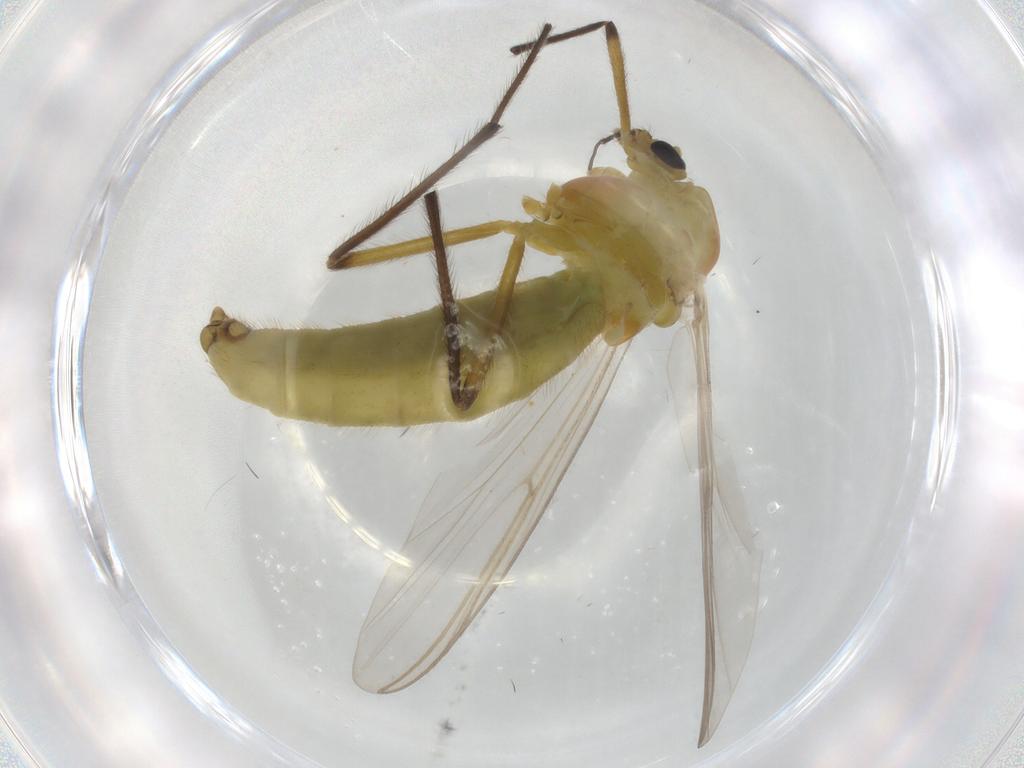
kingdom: Animalia
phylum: Arthropoda
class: Insecta
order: Diptera
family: Chironomidae
